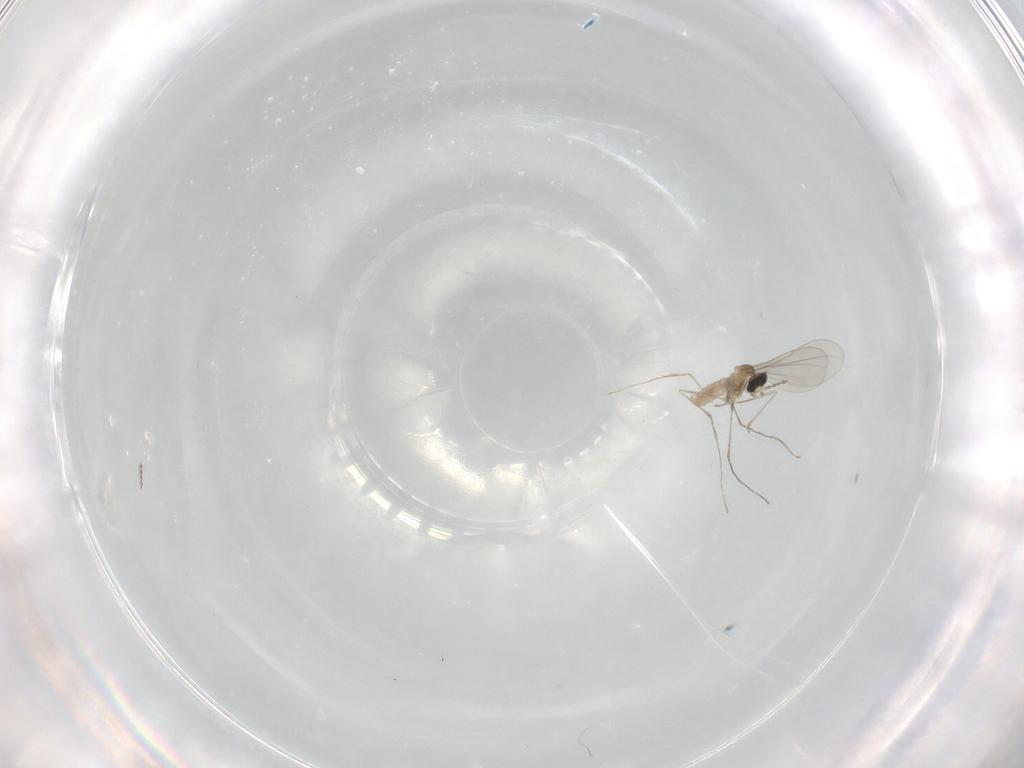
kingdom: Animalia
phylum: Arthropoda
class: Insecta
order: Diptera
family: Cecidomyiidae
